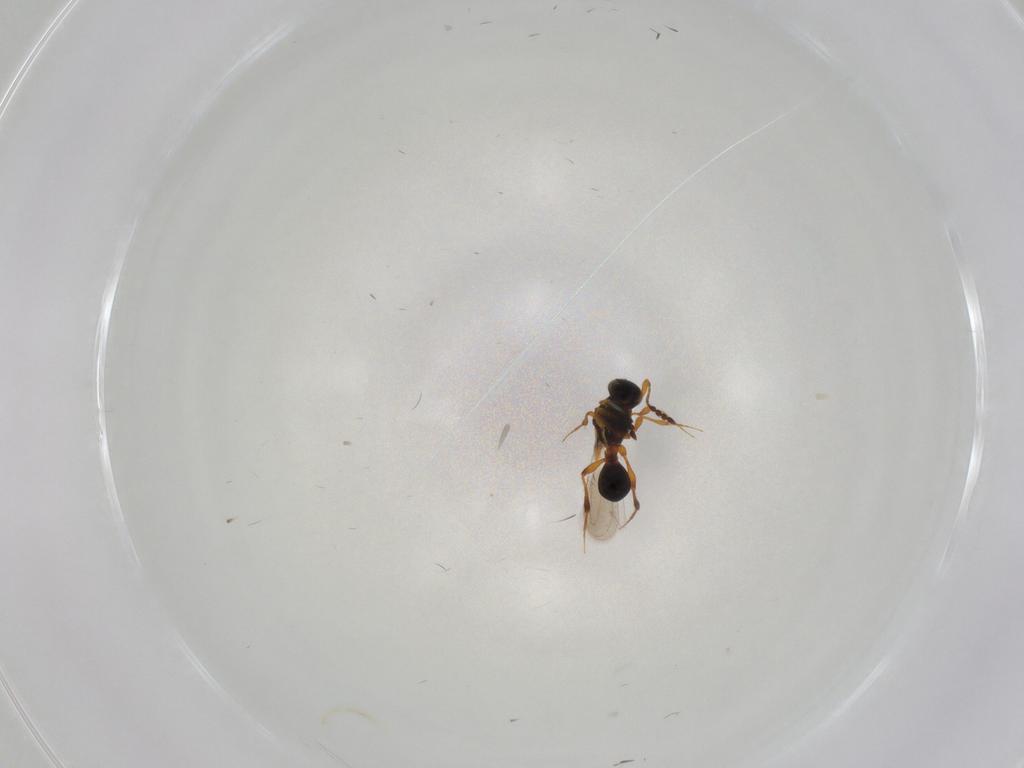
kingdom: Animalia
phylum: Arthropoda
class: Insecta
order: Hymenoptera
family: Platygastridae
